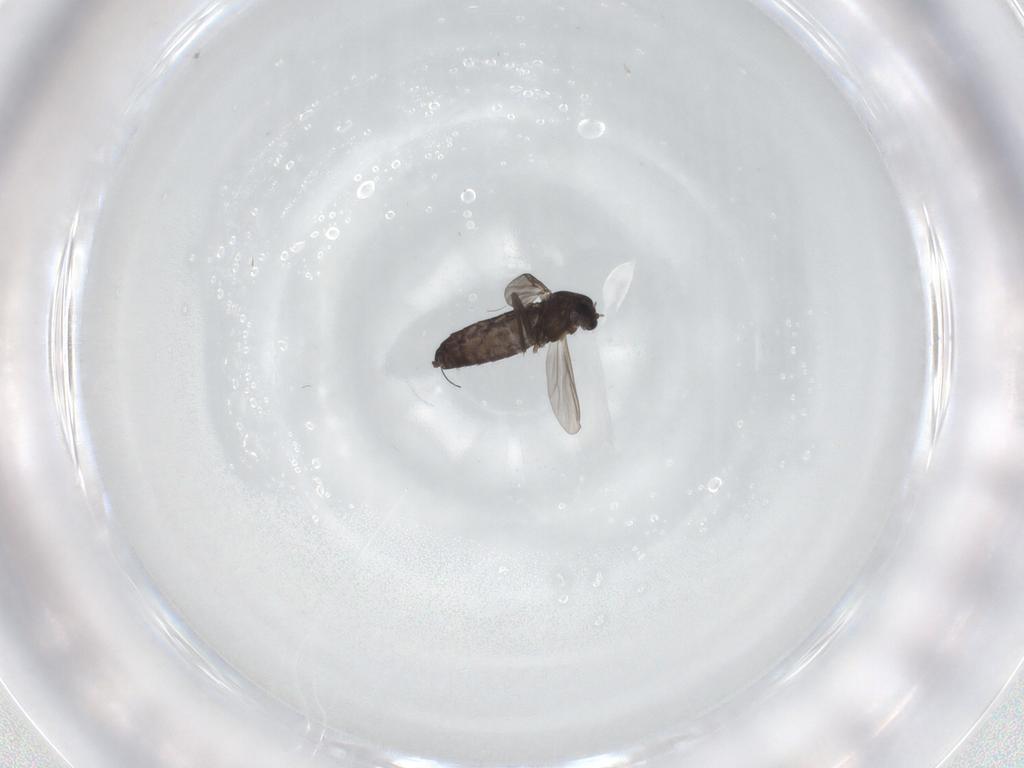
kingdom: Animalia
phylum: Arthropoda
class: Insecta
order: Diptera
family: Chironomidae
